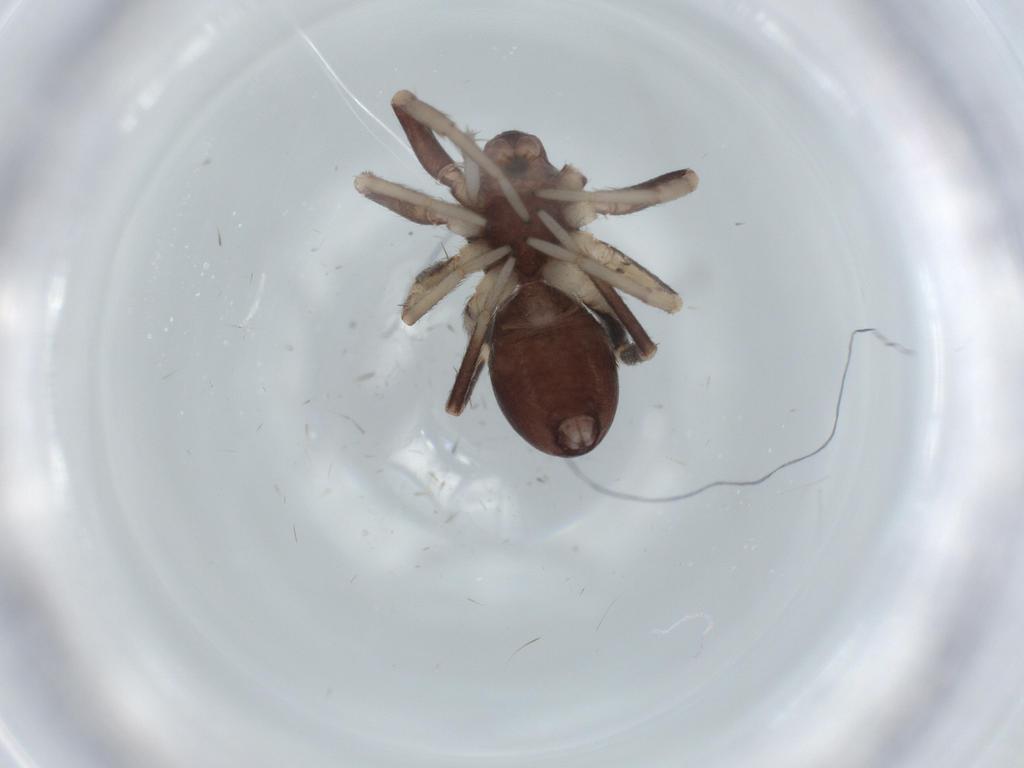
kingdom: Animalia
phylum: Arthropoda
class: Arachnida
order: Araneae
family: Corinnidae
